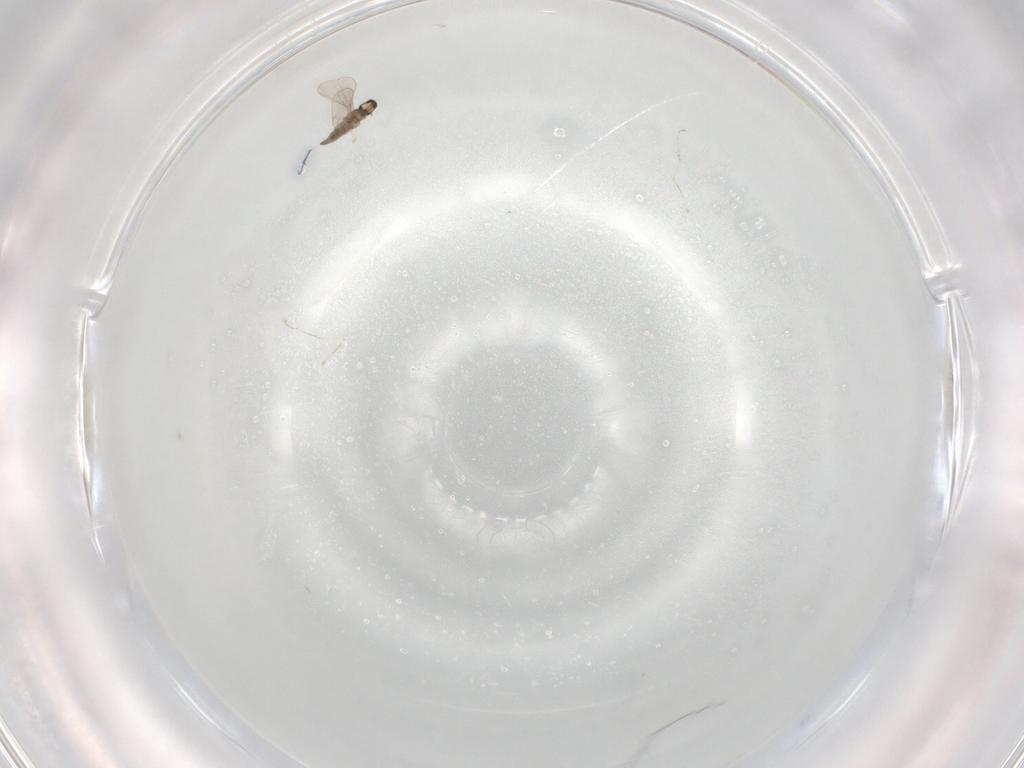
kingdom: Animalia
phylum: Arthropoda
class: Insecta
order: Diptera
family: Cecidomyiidae
